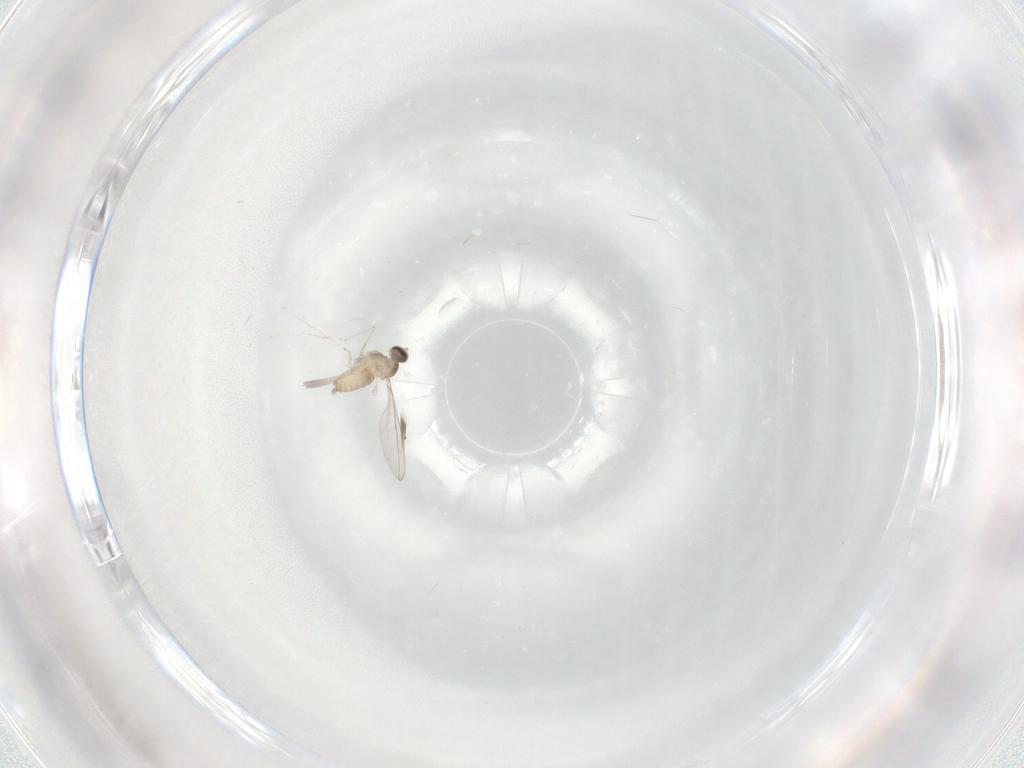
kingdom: Animalia
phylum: Arthropoda
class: Insecta
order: Diptera
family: Cecidomyiidae
